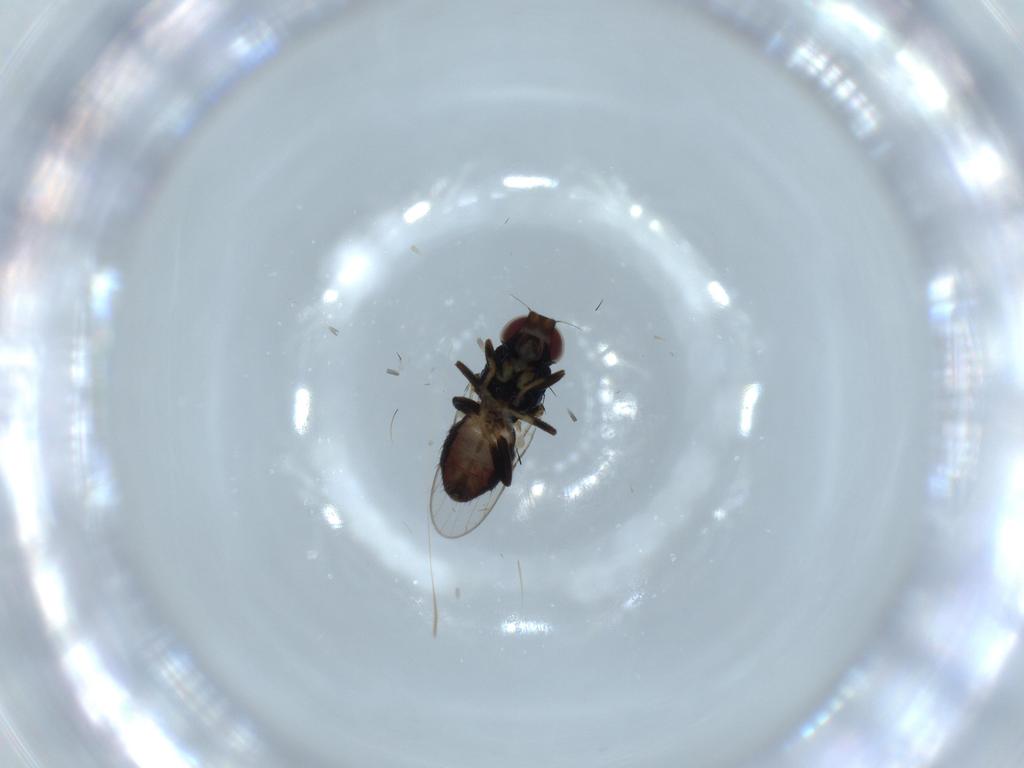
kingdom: Animalia
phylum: Arthropoda
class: Insecta
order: Diptera
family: Chloropidae
